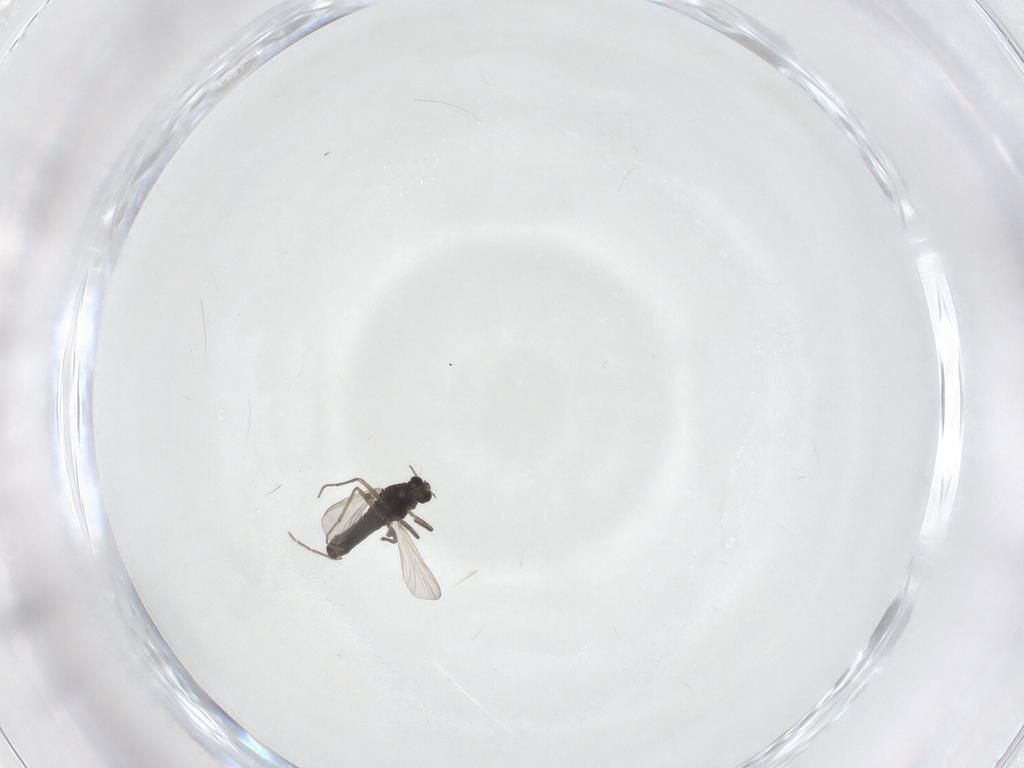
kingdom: Animalia
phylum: Arthropoda
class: Insecta
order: Diptera
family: Chironomidae
